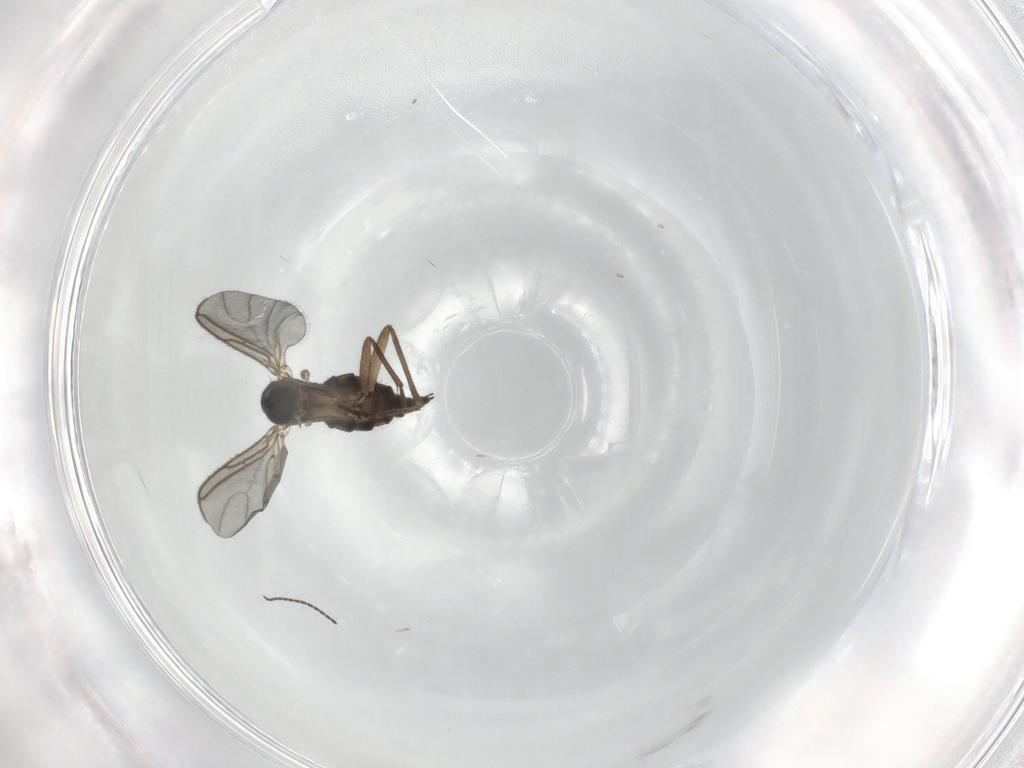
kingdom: Animalia
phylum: Arthropoda
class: Insecta
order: Diptera
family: Sciaridae
